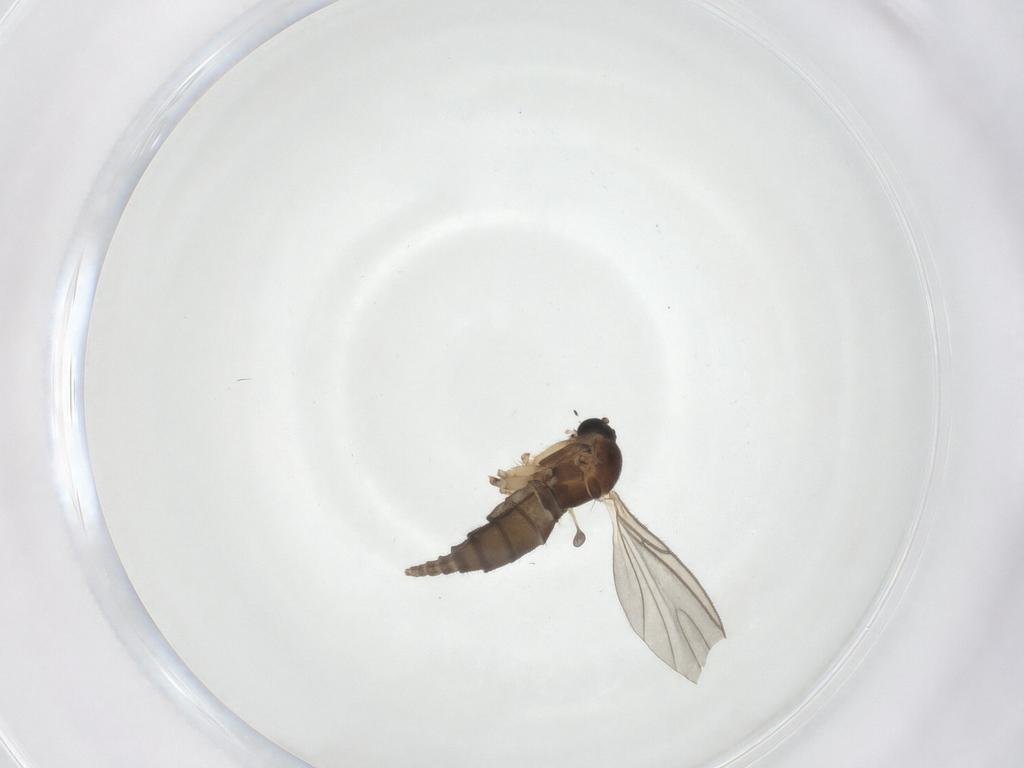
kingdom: Animalia
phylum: Arthropoda
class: Insecta
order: Diptera
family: Sciaridae
